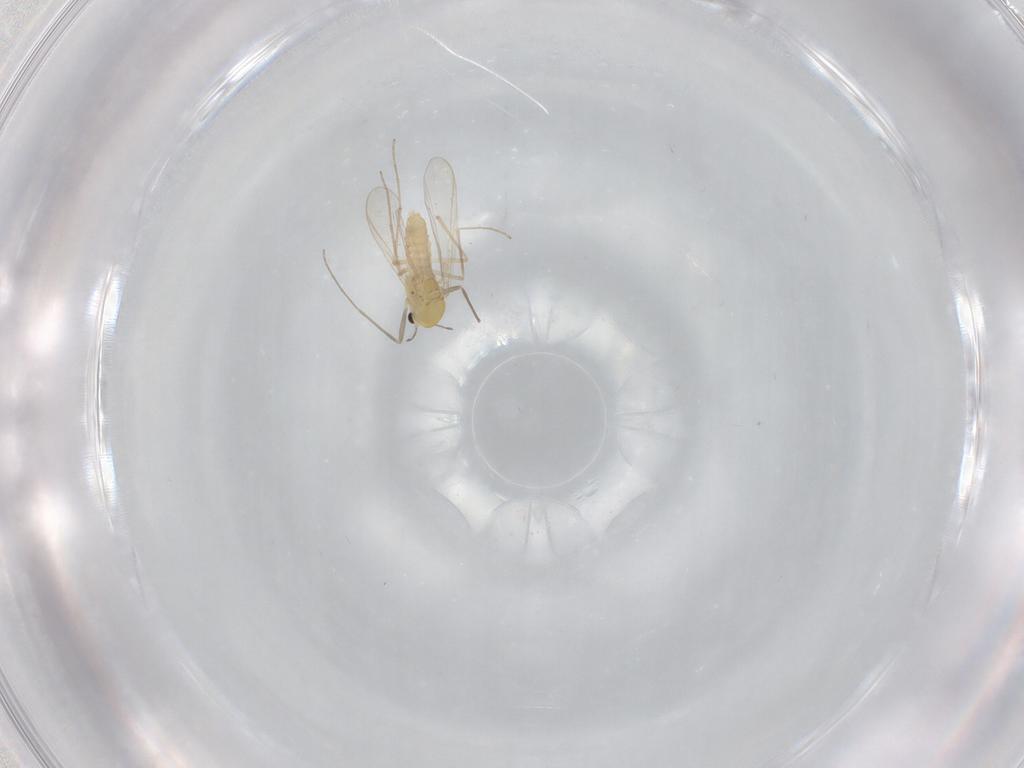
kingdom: Animalia
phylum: Arthropoda
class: Insecta
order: Diptera
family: Chironomidae
